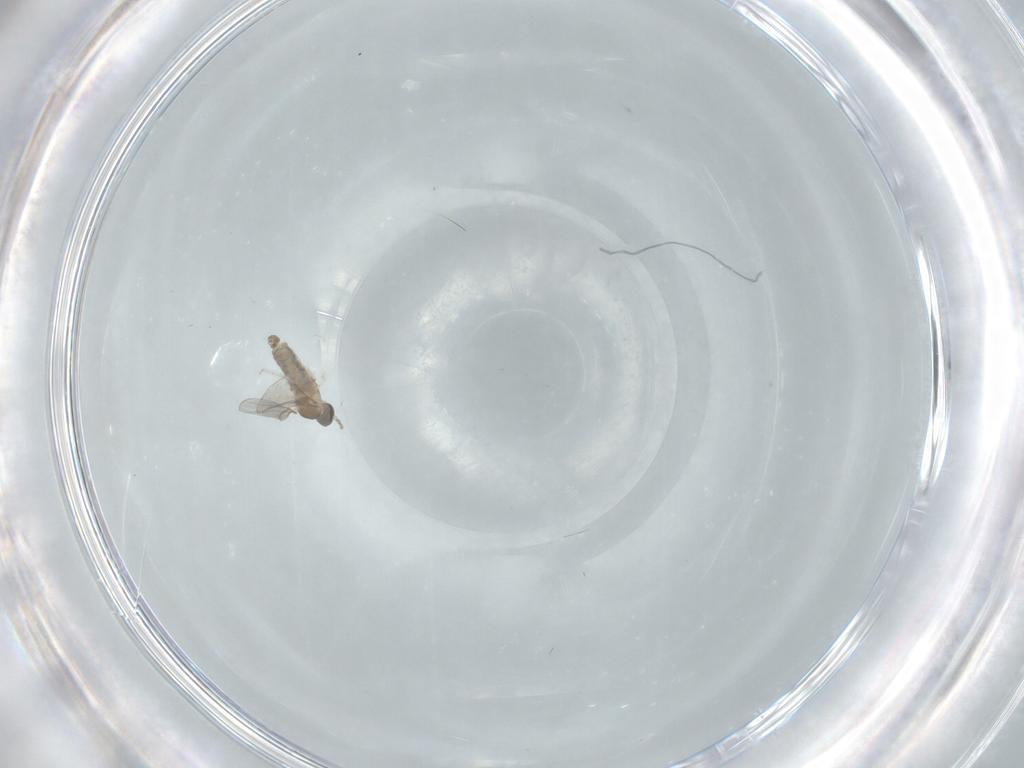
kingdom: Animalia
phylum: Arthropoda
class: Insecta
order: Diptera
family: Cecidomyiidae
